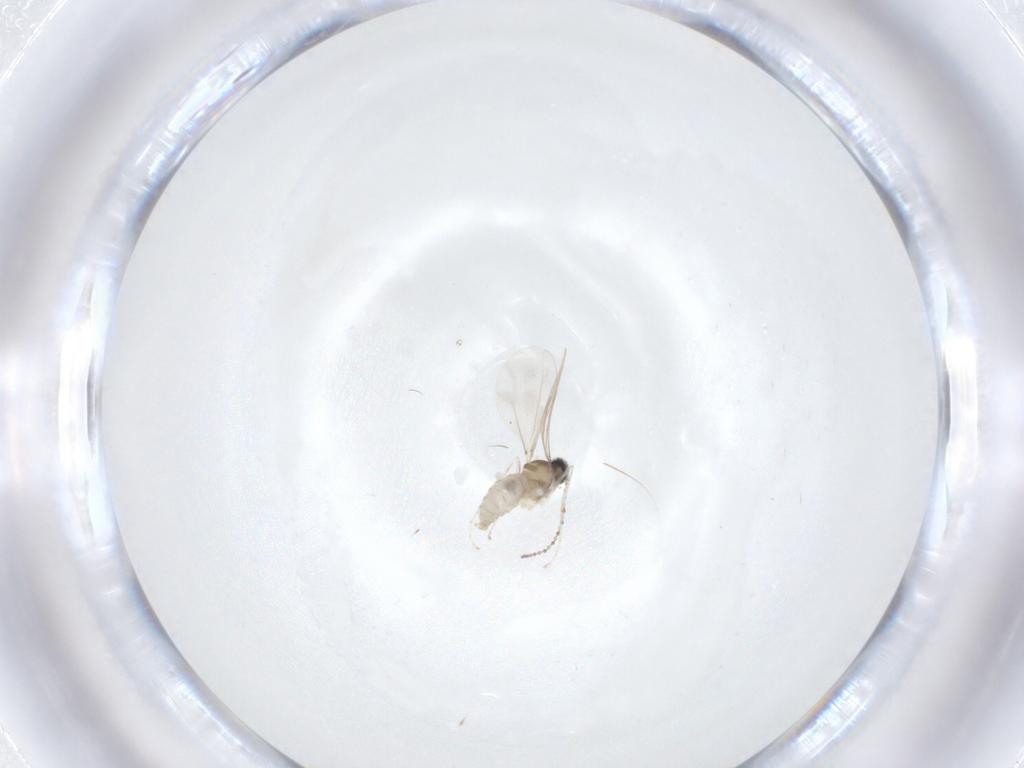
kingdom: Animalia
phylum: Arthropoda
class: Insecta
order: Diptera
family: Cecidomyiidae
